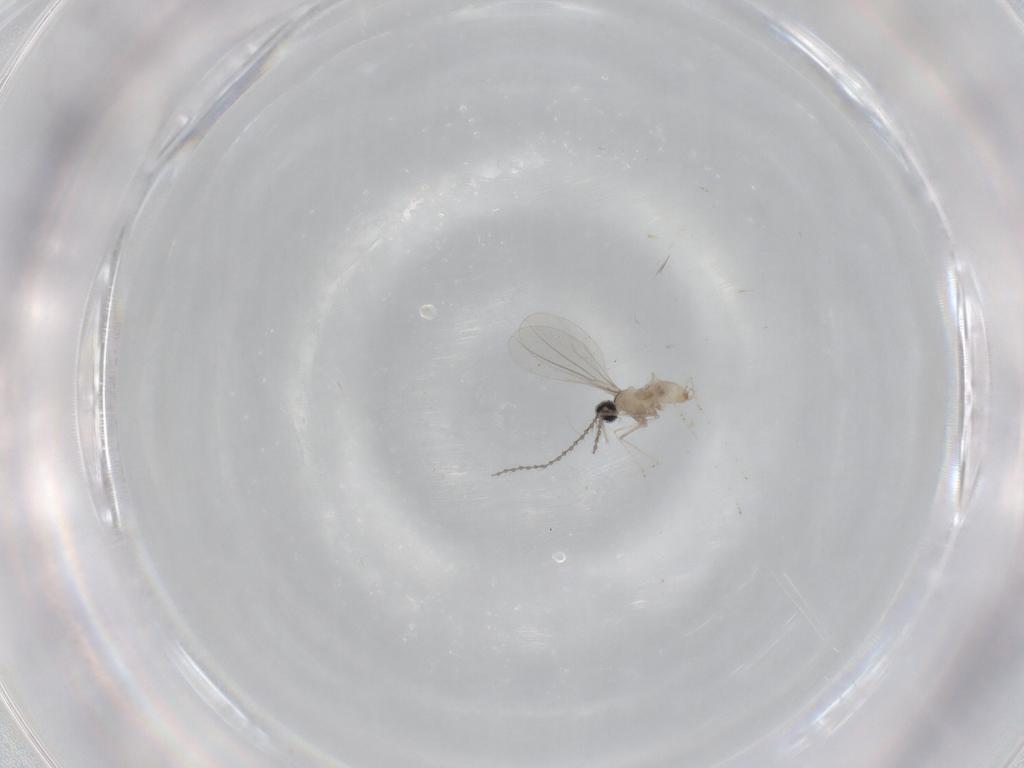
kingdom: Animalia
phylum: Arthropoda
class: Insecta
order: Diptera
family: Cecidomyiidae
